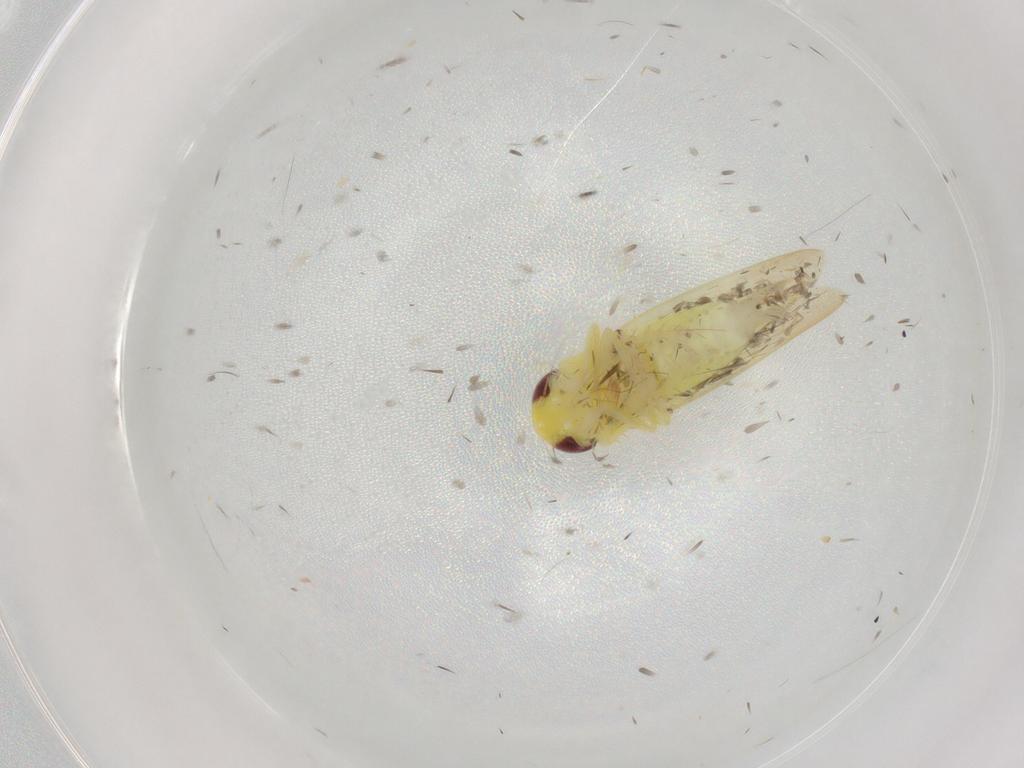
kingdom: Animalia
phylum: Arthropoda
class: Insecta
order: Hemiptera
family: Cicadellidae
